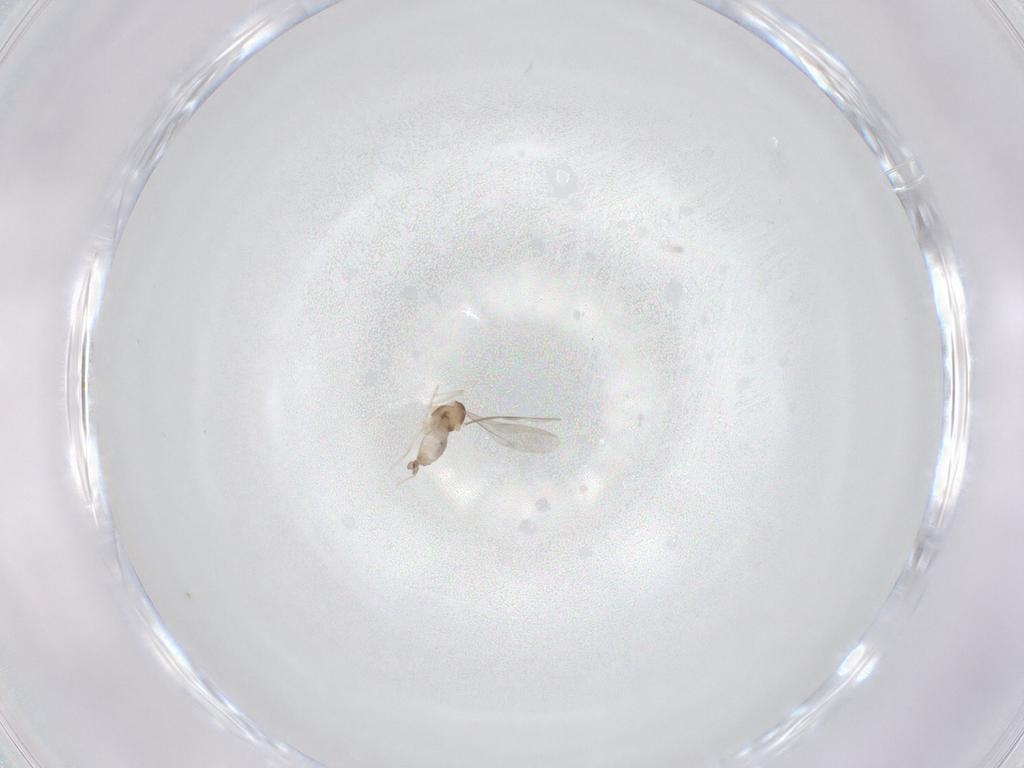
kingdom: Animalia
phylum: Arthropoda
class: Insecta
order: Diptera
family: Cecidomyiidae
